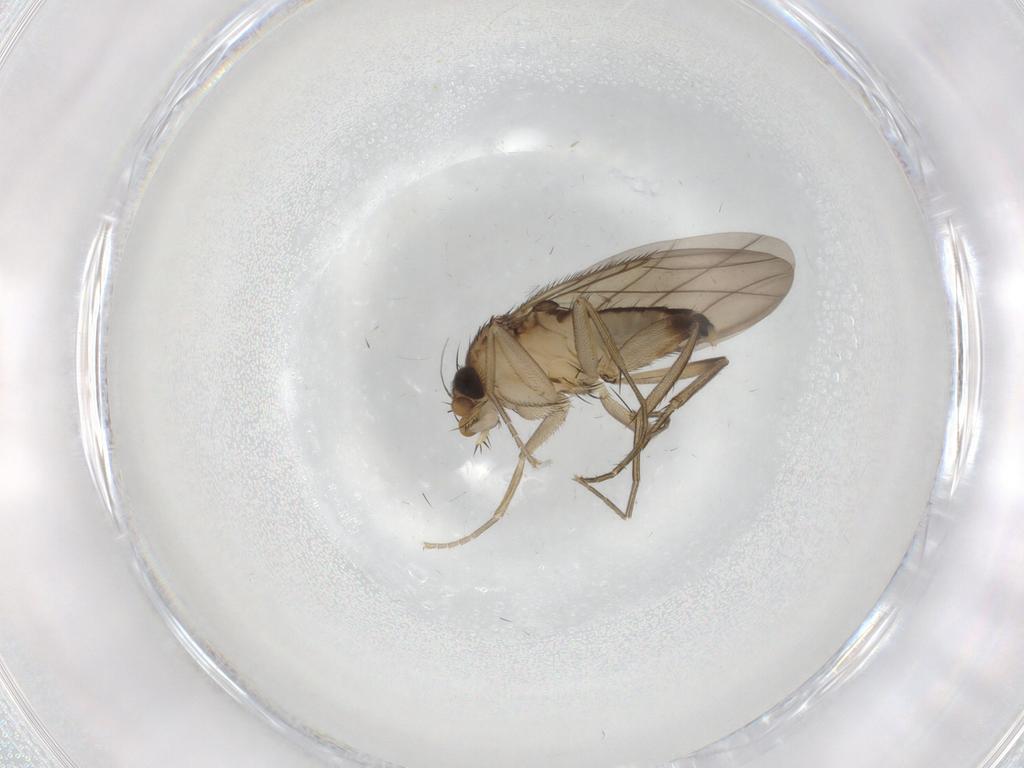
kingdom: Animalia
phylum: Arthropoda
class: Insecta
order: Diptera
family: Phoridae
